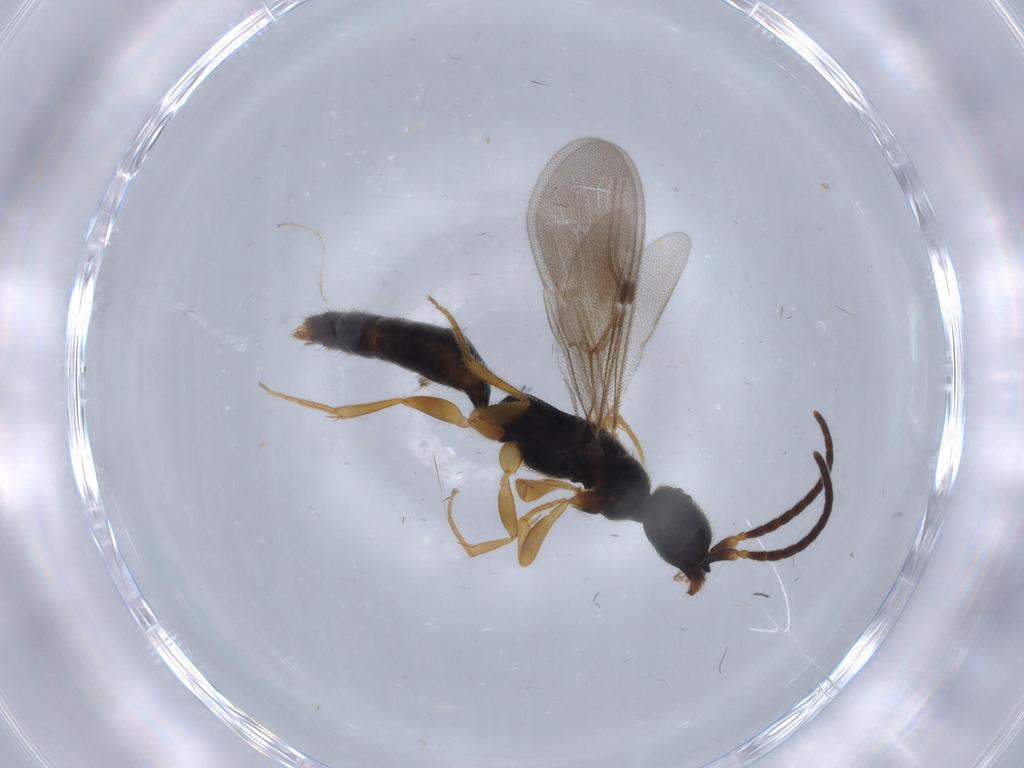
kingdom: Animalia
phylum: Arthropoda
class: Insecta
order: Hymenoptera
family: Bethylidae
